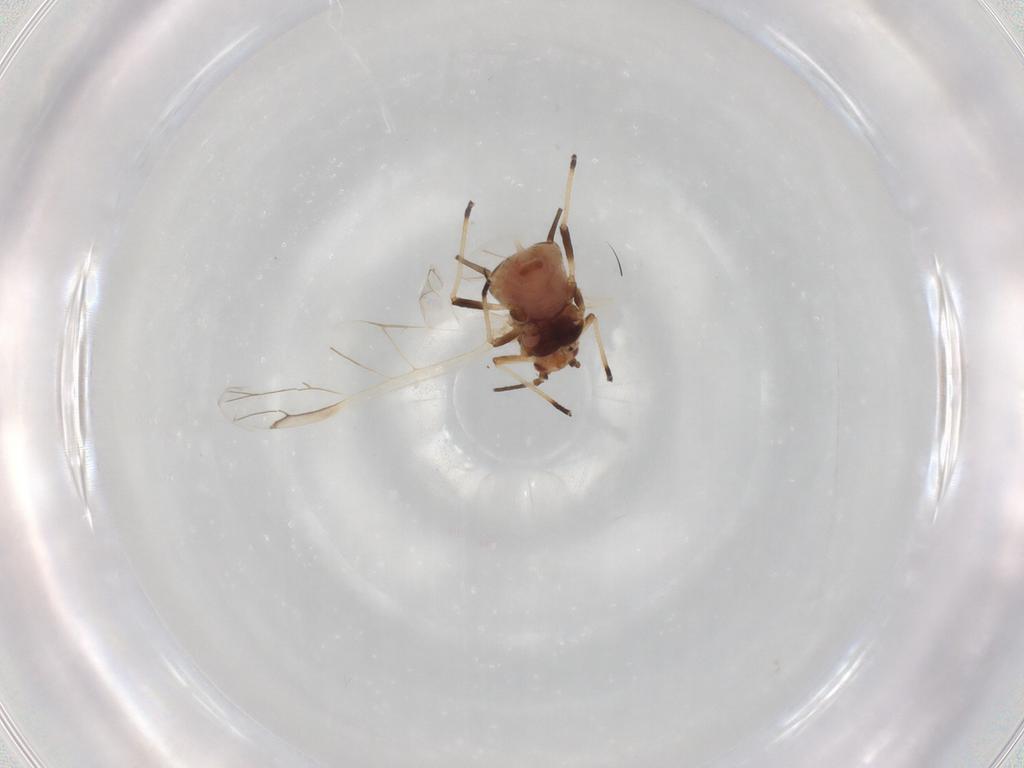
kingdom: Animalia
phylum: Arthropoda
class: Insecta
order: Hemiptera
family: Aphididae
